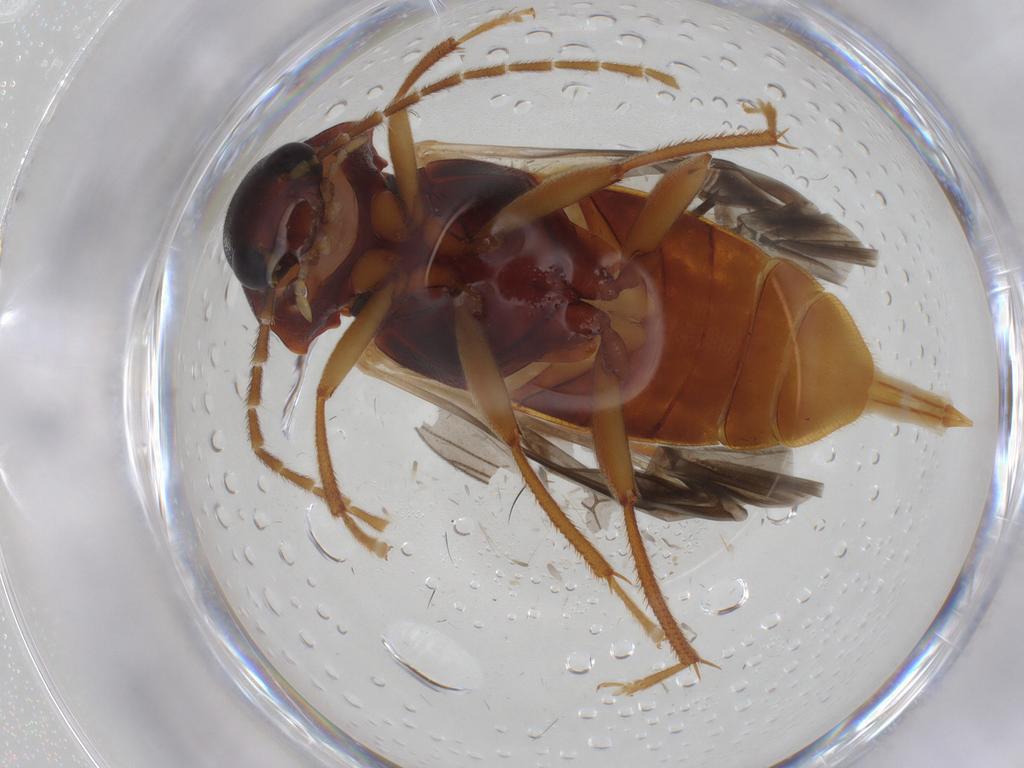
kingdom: Animalia
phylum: Arthropoda
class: Insecta
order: Coleoptera
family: Ptilodactylidae
